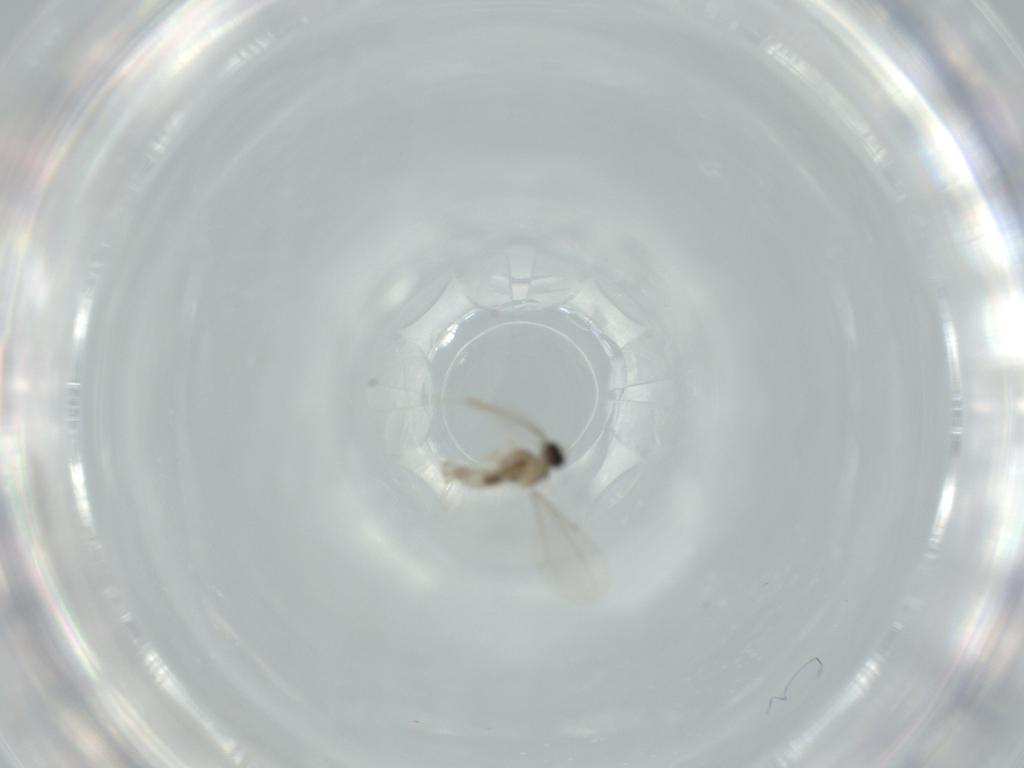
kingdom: Animalia
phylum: Arthropoda
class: Insecta
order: Diptera
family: Cecidomyiidae
